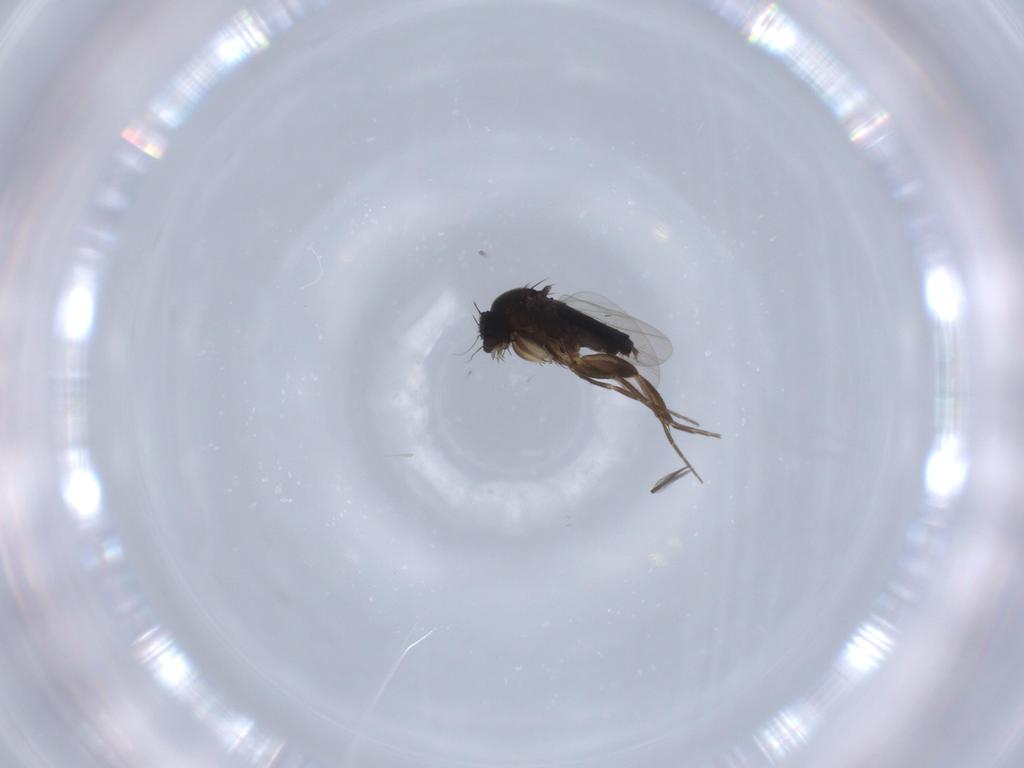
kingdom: Animalia
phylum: Arthropoda
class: Insecta
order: Diptera
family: Phoridae
